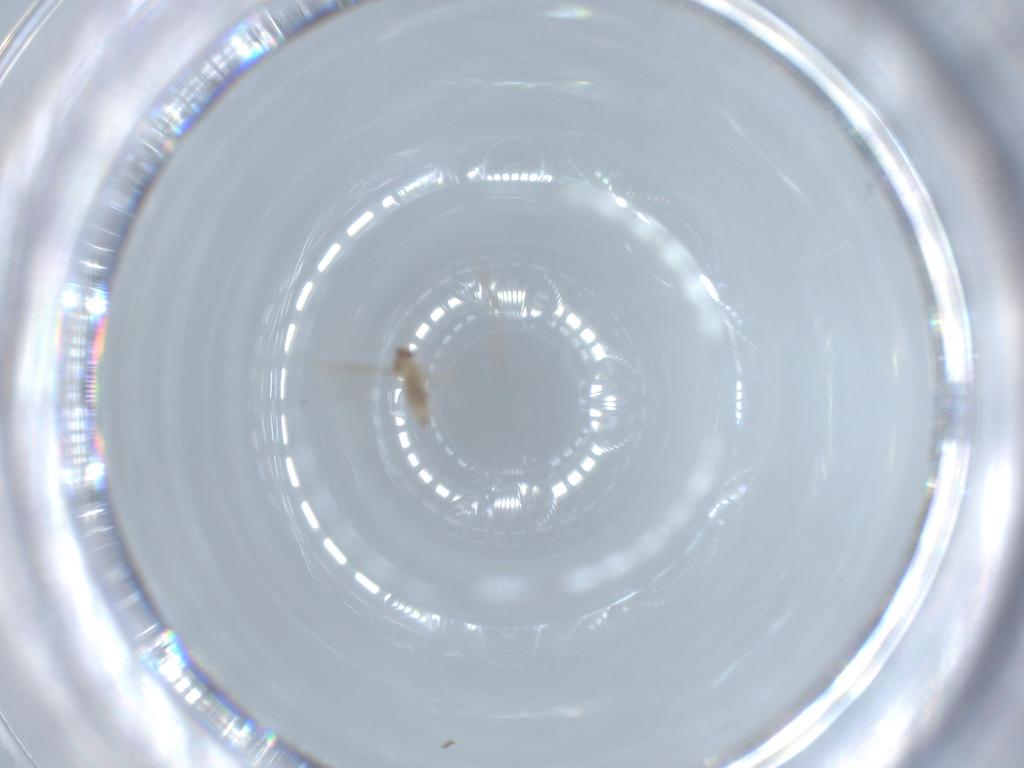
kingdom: Animalia
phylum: Arthropoda
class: Insecta
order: Diptera
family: Cecidomyiidae
